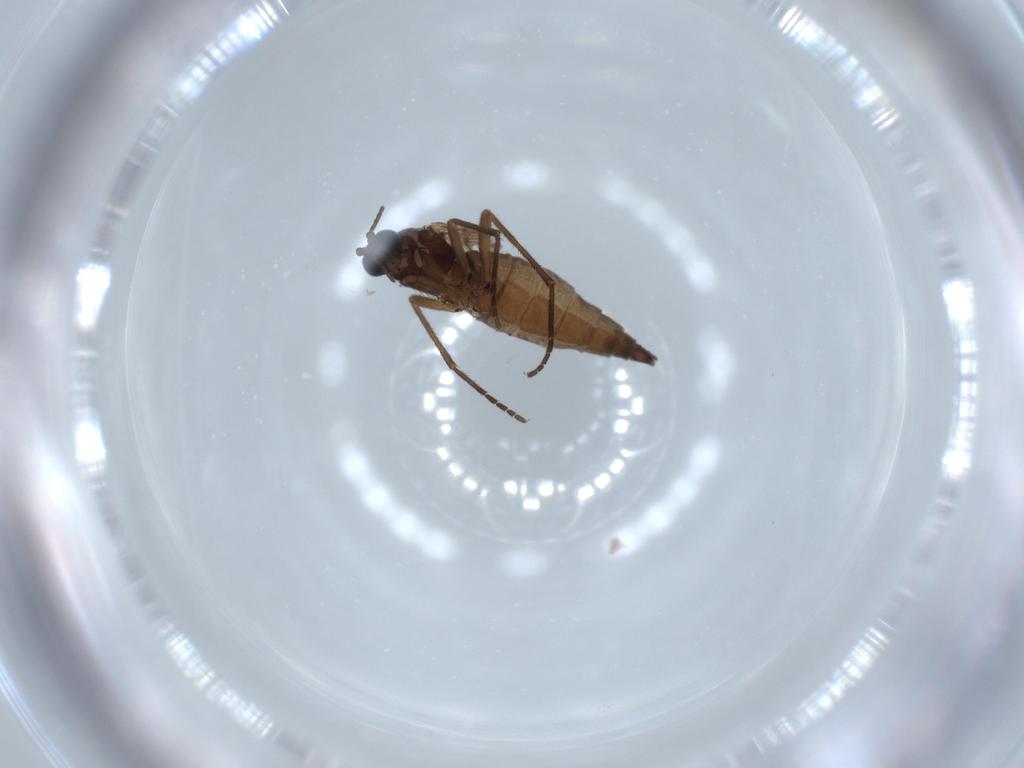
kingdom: Animalia
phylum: Arthropoda
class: Insecta
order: Diptera
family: Sciaridae
